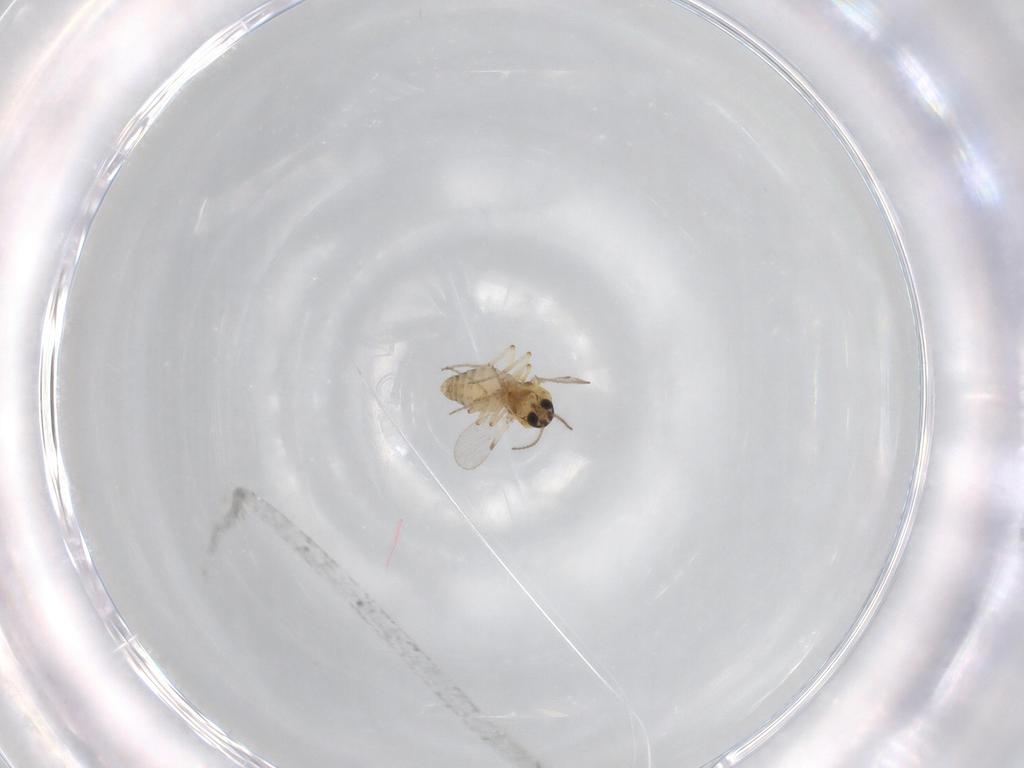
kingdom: Animalia
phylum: Arthropoda
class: Insecta
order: Diptera
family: Ceratopogonidae
